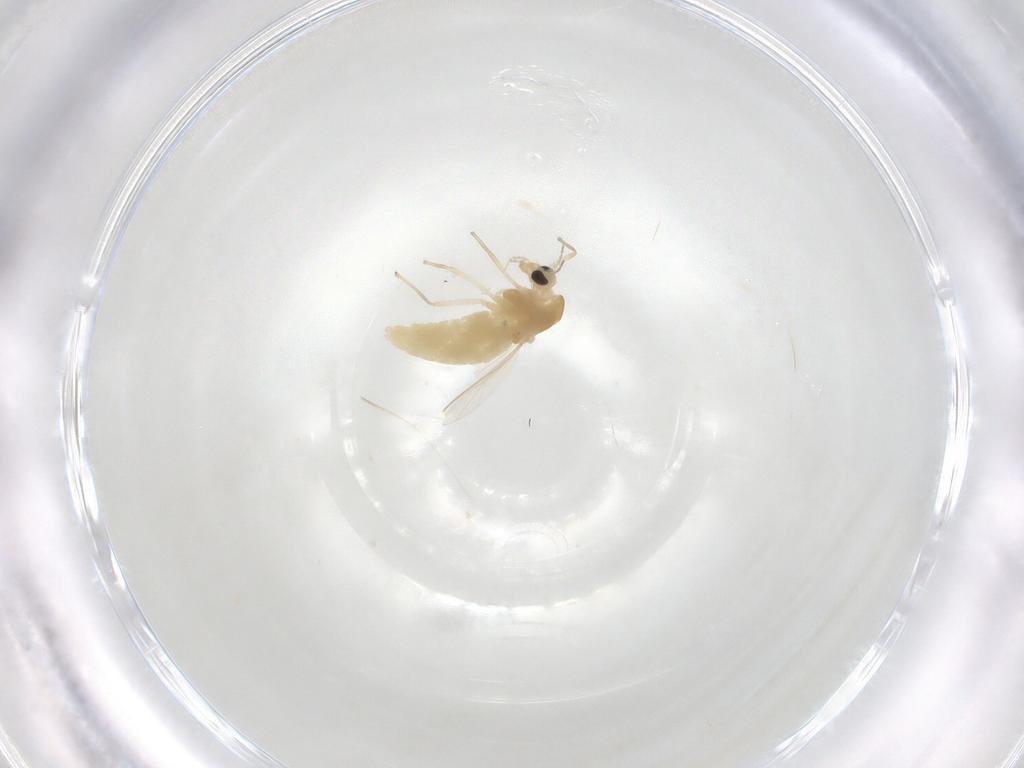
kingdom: Animalia
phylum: Arthropoda
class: Insecta
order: Diptera
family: Chironomidae
